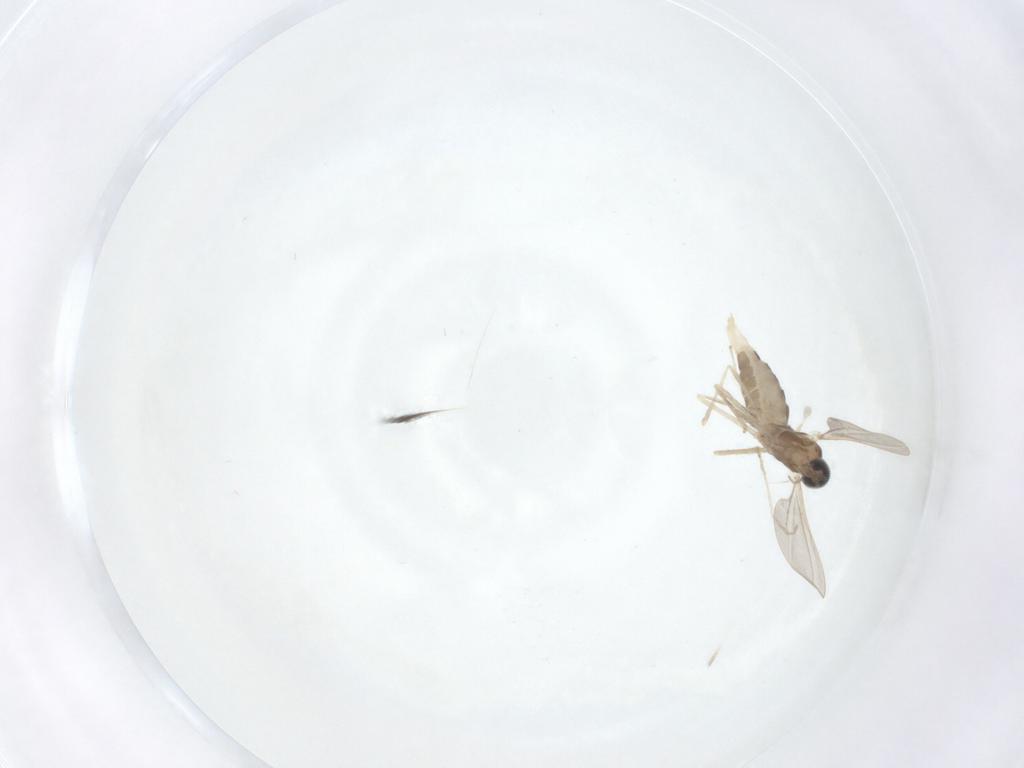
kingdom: Animalia
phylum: Arthropoda
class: Insecta
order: Diptera
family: Cecidomyiidae
